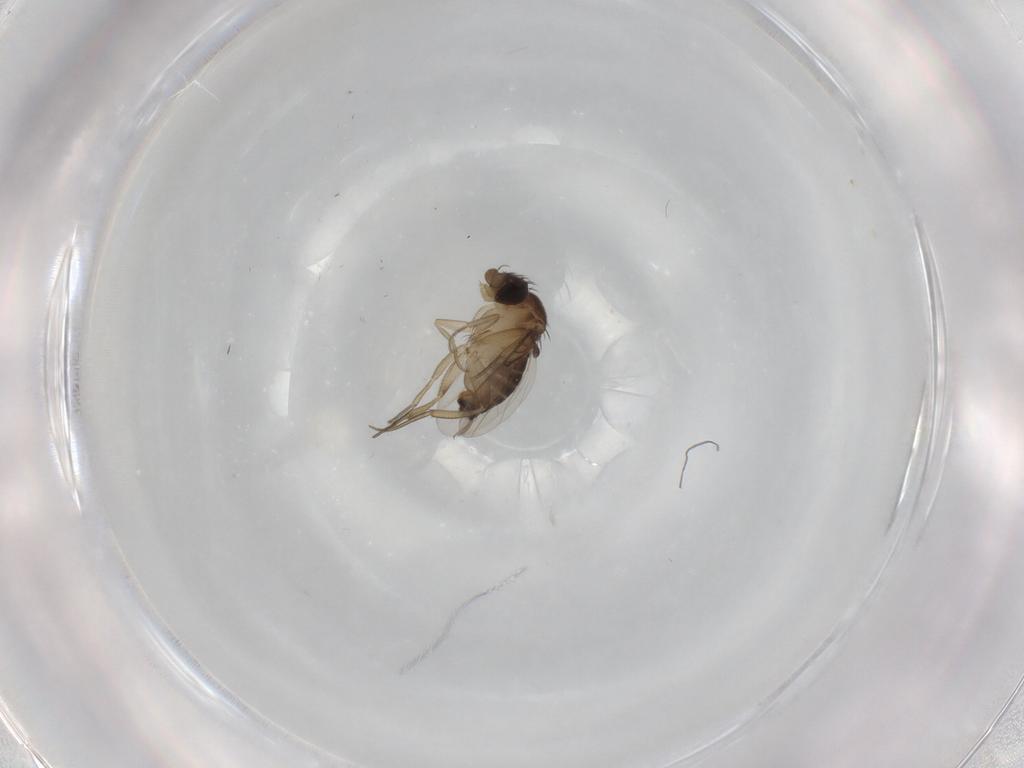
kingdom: Animalia
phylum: Arthropoda
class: Insecta
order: Diptera
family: Phoridae
